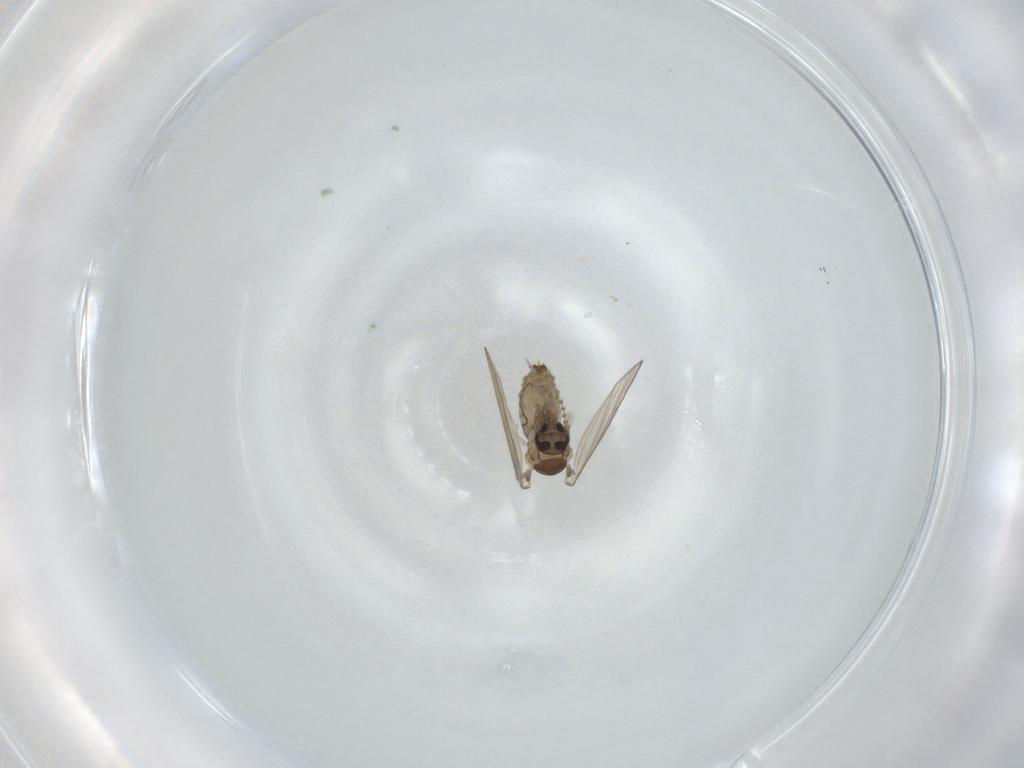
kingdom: Animalia
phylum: Arthropoda
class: Insecta
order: Diptera
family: Psychodidae
